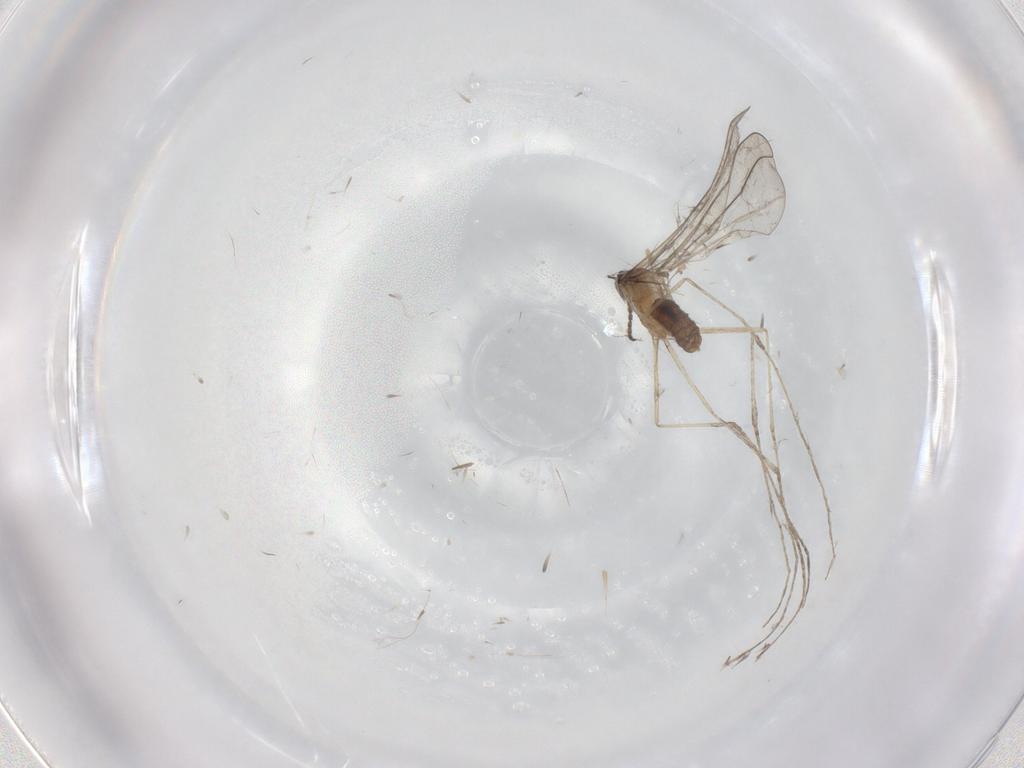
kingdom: Animalia
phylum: Arthropoda
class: Insecta
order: Diptera
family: Cecidomyiidae
